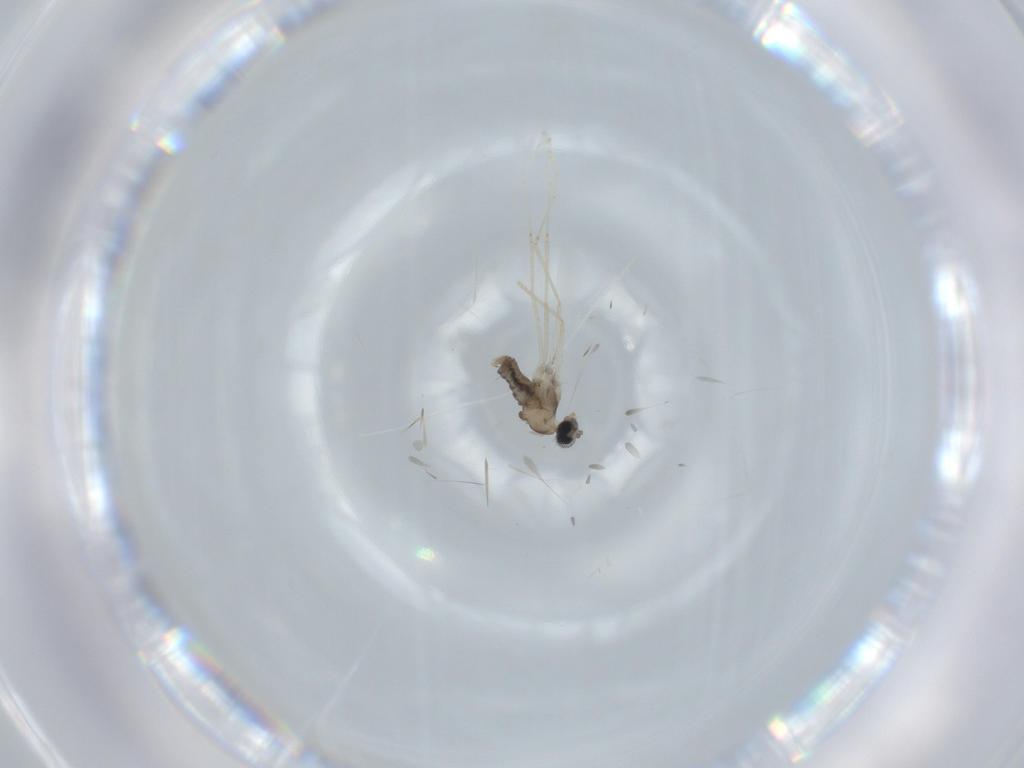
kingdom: Animalia
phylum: Arthropoda
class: Insecta
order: Diptera
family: Cecidomyiidae
